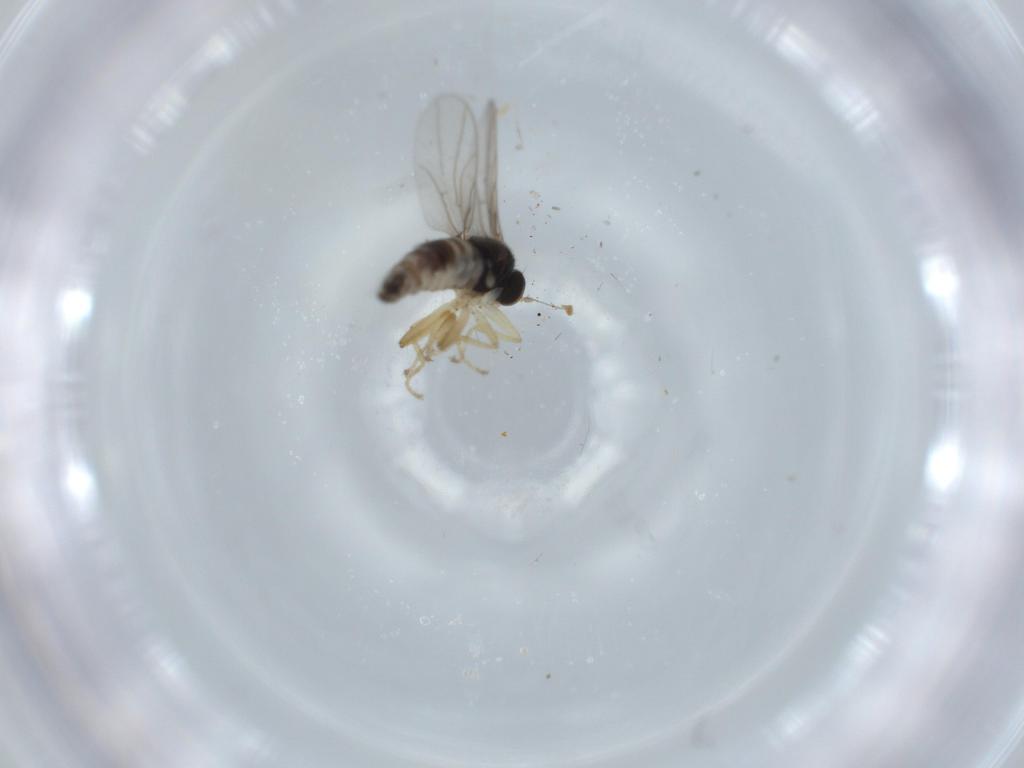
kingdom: Animalia
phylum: Arthropoda
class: Insecta
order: Diptera
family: Cecidomyiidae
